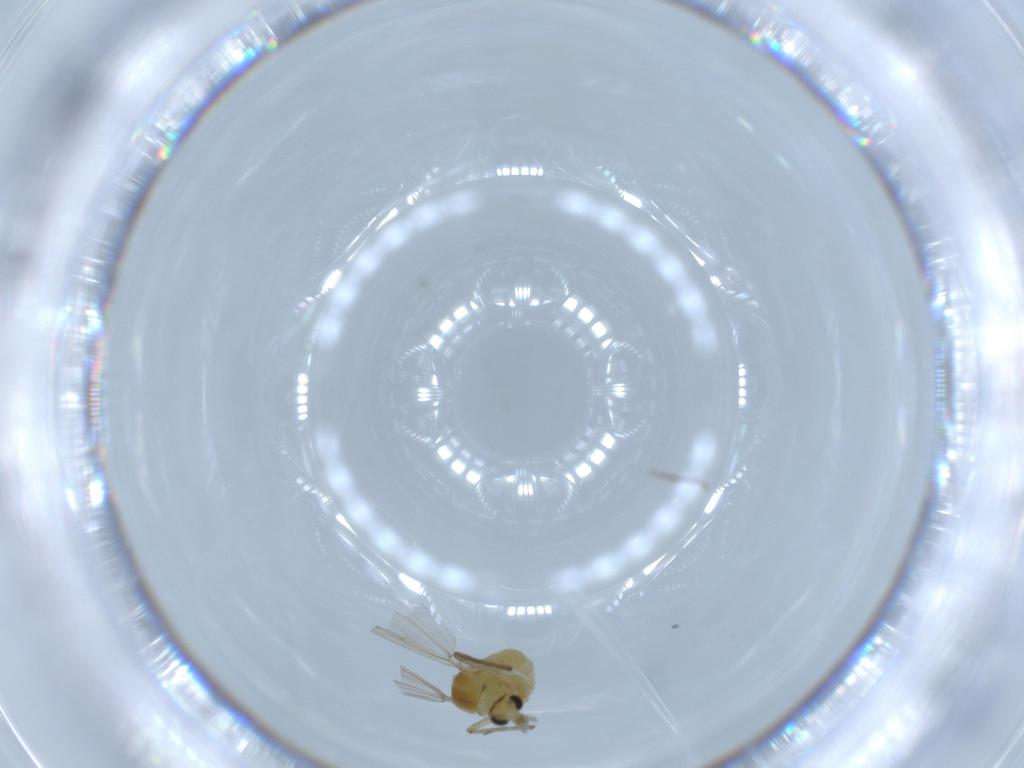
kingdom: Animalia
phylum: Arthropoda
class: Insecta
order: Diptera
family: Chironomidae
